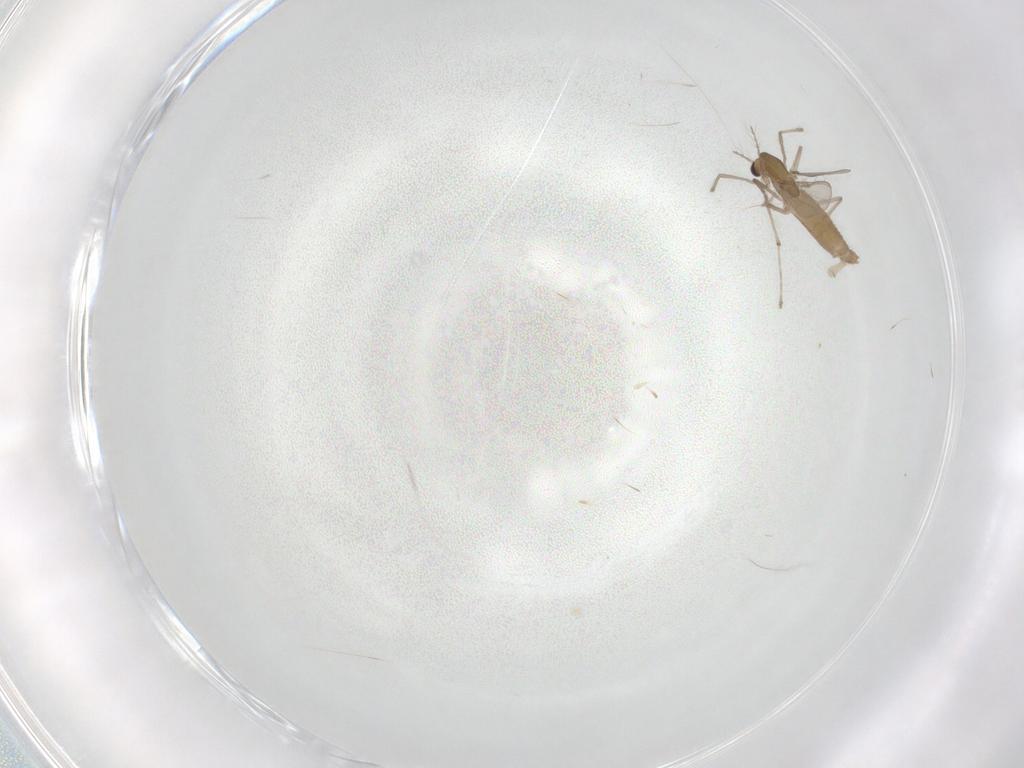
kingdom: Animalia
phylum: Arthropoda
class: Insecta
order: Diptera
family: Chironomidae
